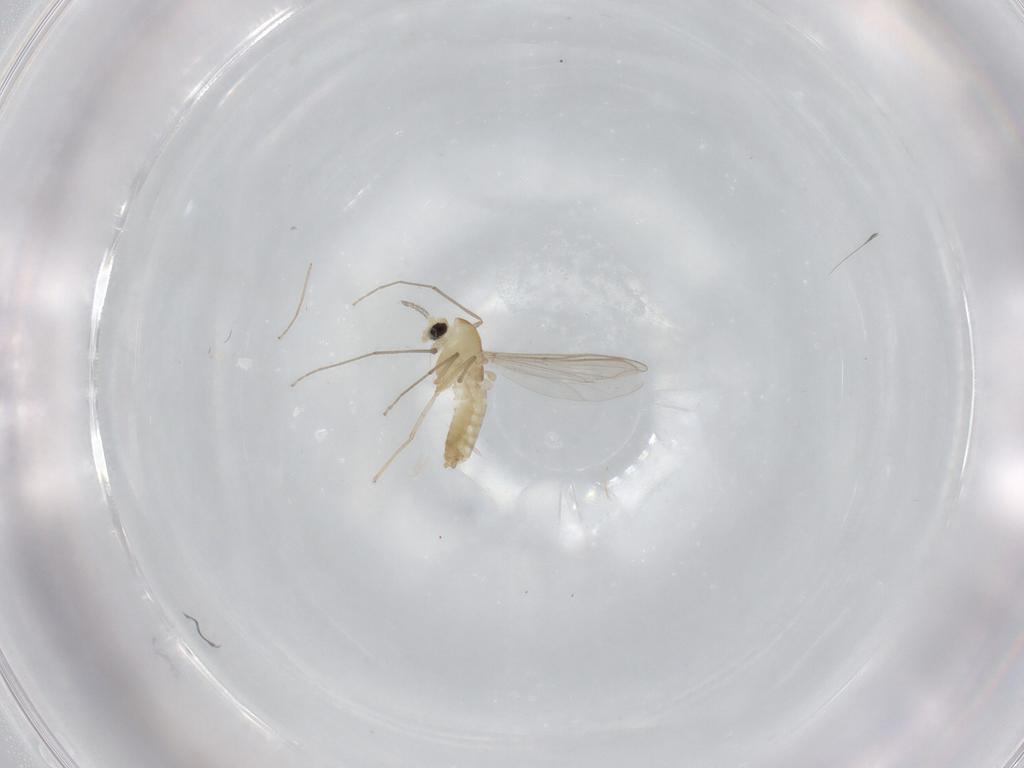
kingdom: Animalia
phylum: Arthropoda
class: Insecta
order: Diptera
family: Chironomidae
